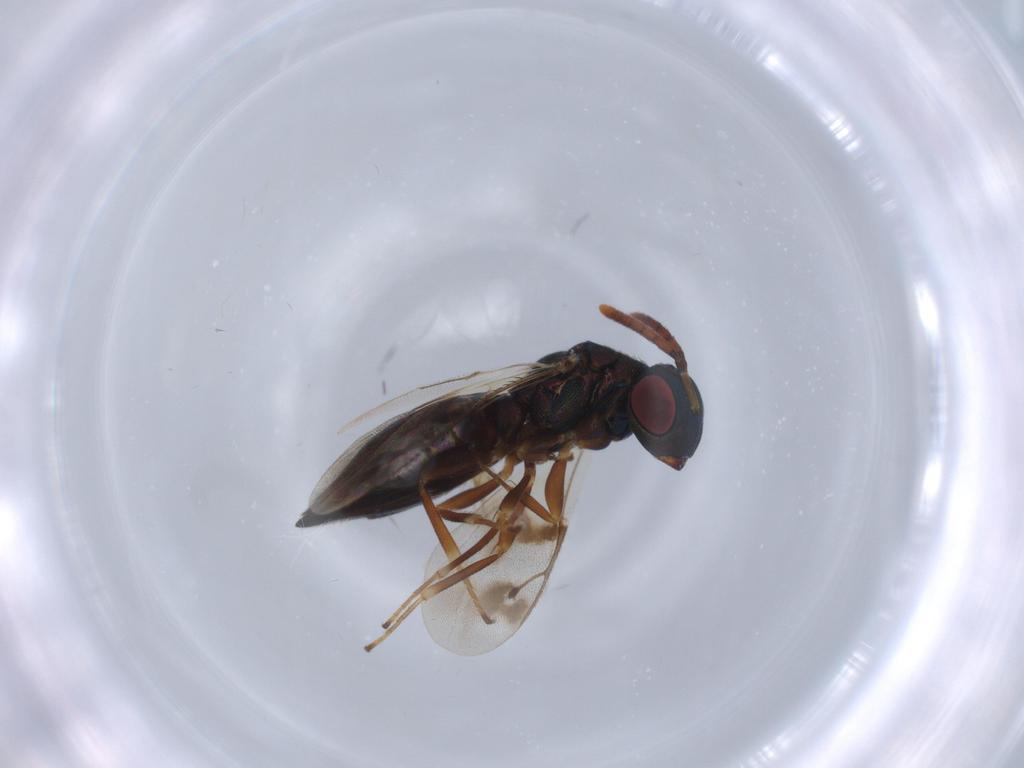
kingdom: Animalia
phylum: Arthropoda
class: Insecta
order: Hymenoptera
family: Pteromalidae
